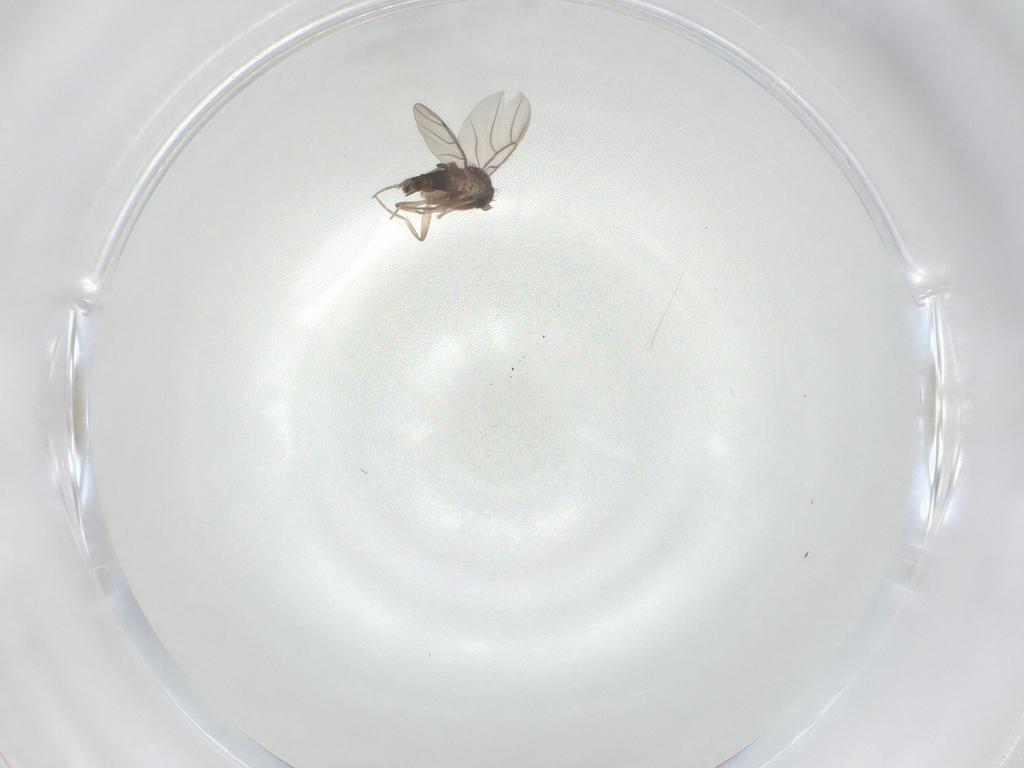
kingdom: Animalia
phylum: Arthropoda
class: Insecta
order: Diptera
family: Phoridae
